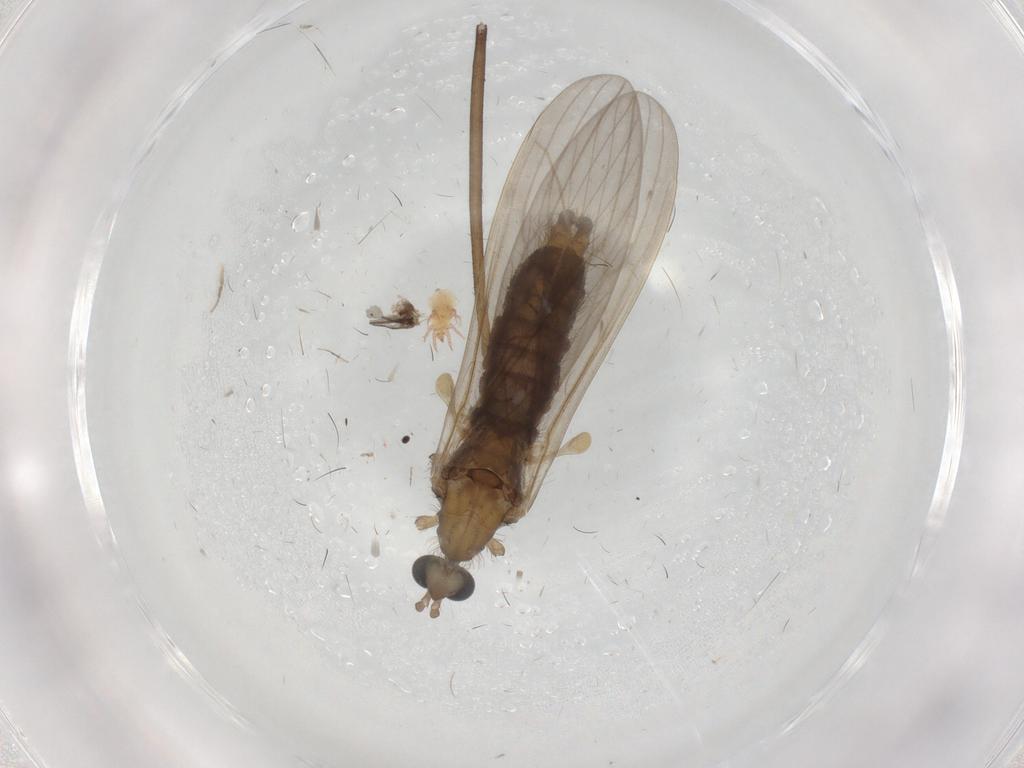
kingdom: Animalia
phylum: Arthropoda
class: Insecta
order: Diptera
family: Limoniidae
